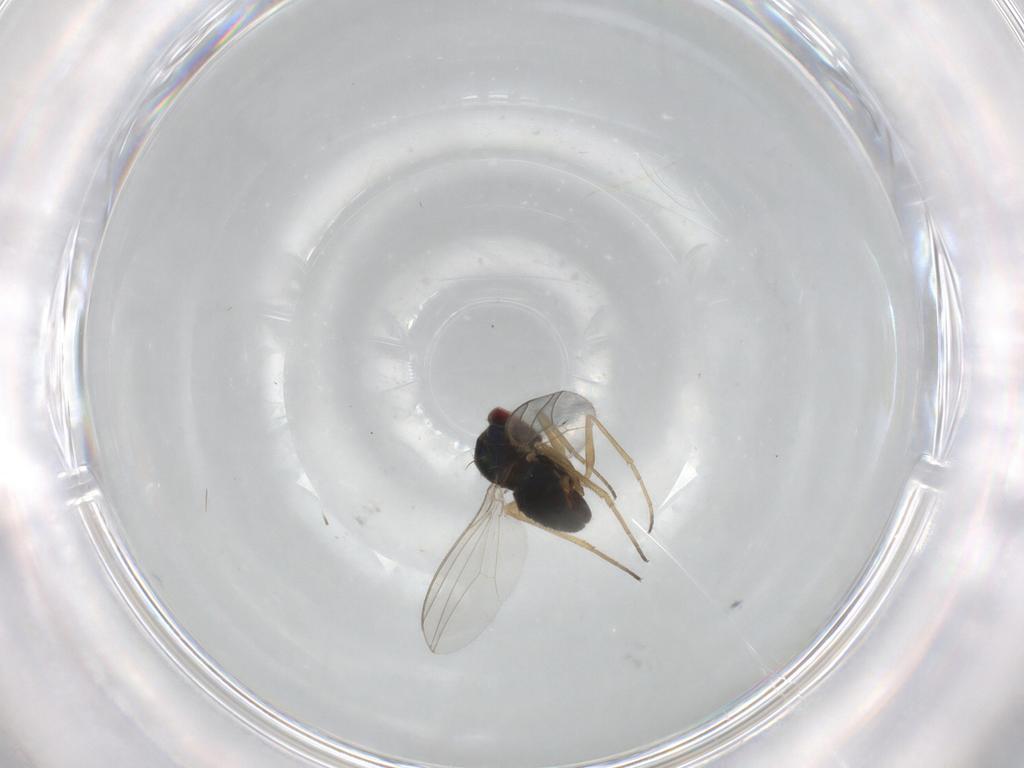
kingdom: Animalia
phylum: Arthropoda
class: Insecta
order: Diptera
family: Dolichopodidae
